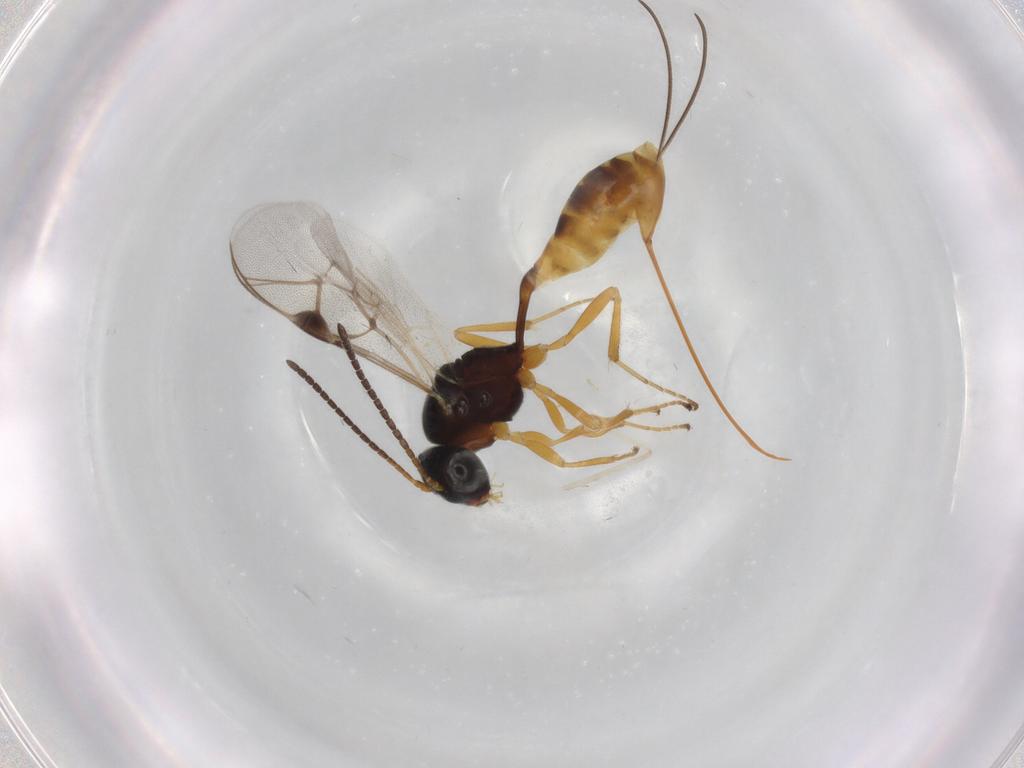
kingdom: Animalia
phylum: Arthropoda
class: Insecta
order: Hymenoptera
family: Ichneumonidae
